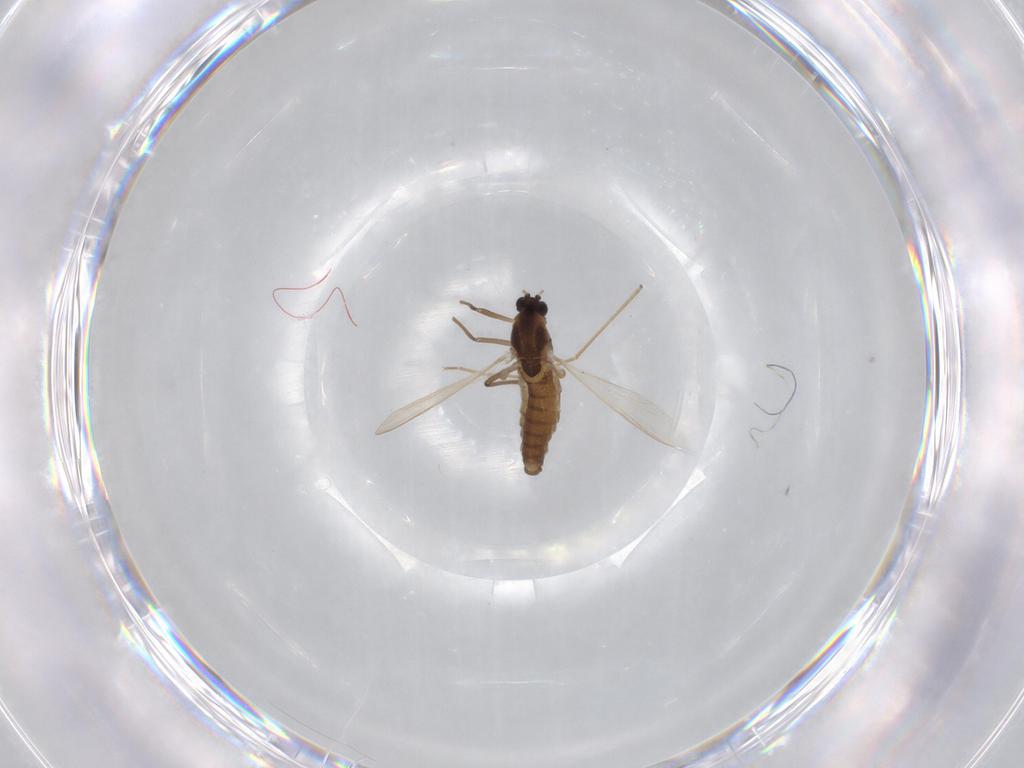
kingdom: Animalia
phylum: Arthropoda
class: Insecta
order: Diptera
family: Chironomidae
